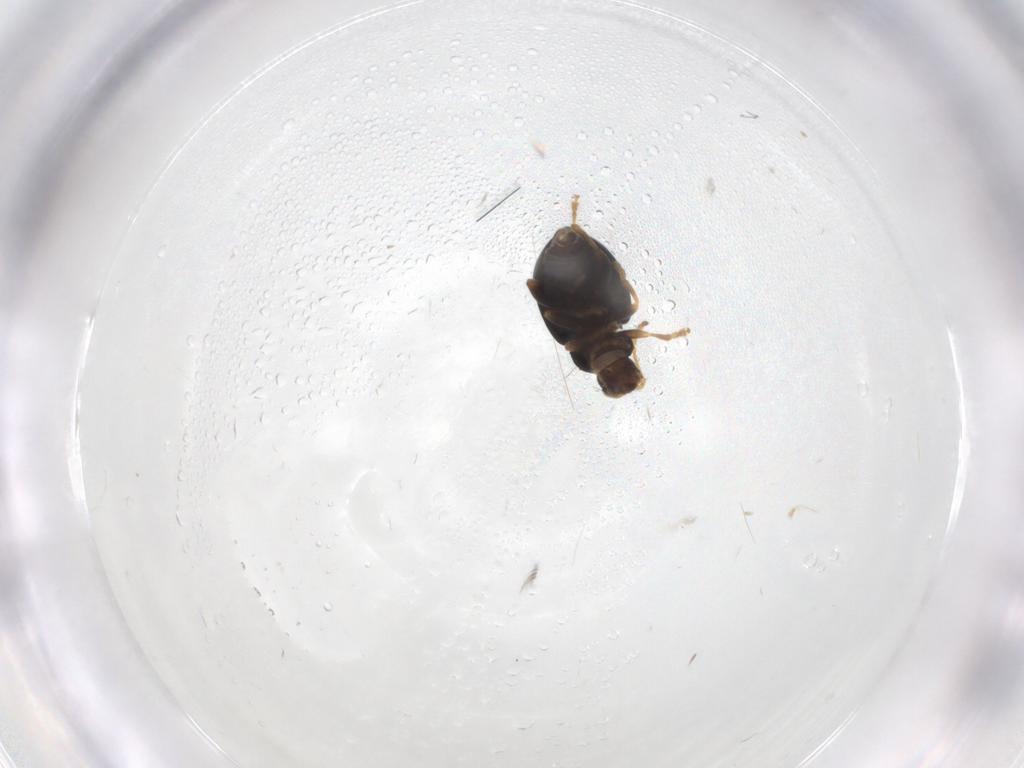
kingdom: Animalia
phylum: Arthropoda
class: Insecta
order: Coleoptera
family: Chrysomelidae
